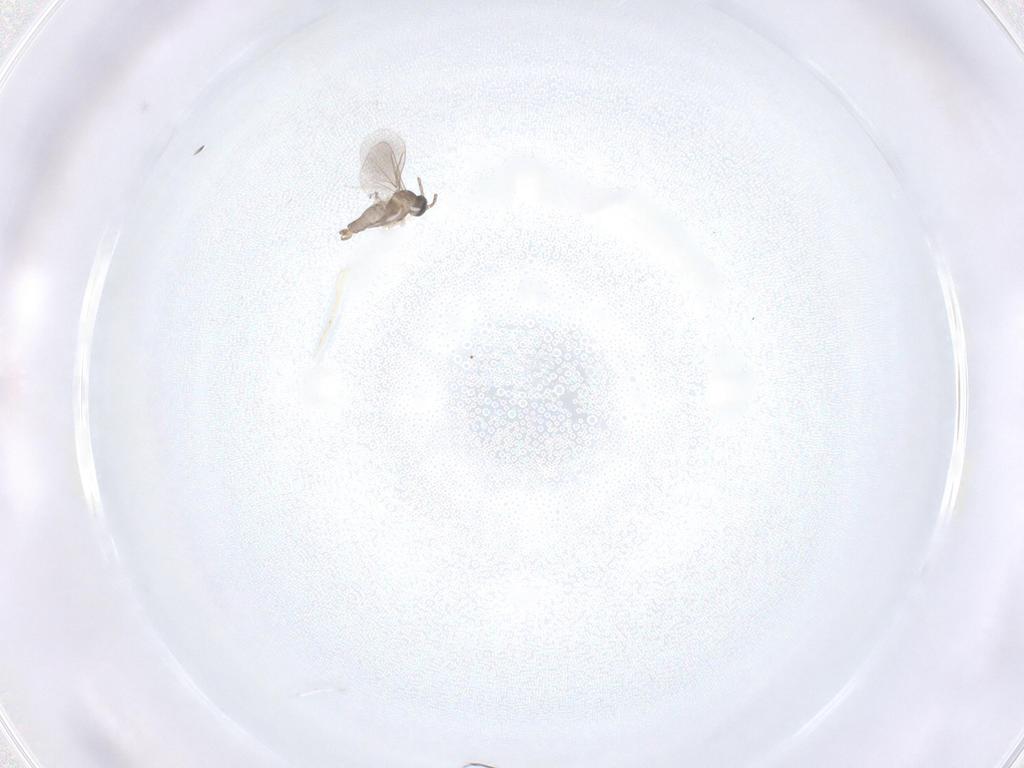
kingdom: Animalia
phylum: Arthropoda
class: Insecta
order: Diptera
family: Cecidomyiidae
